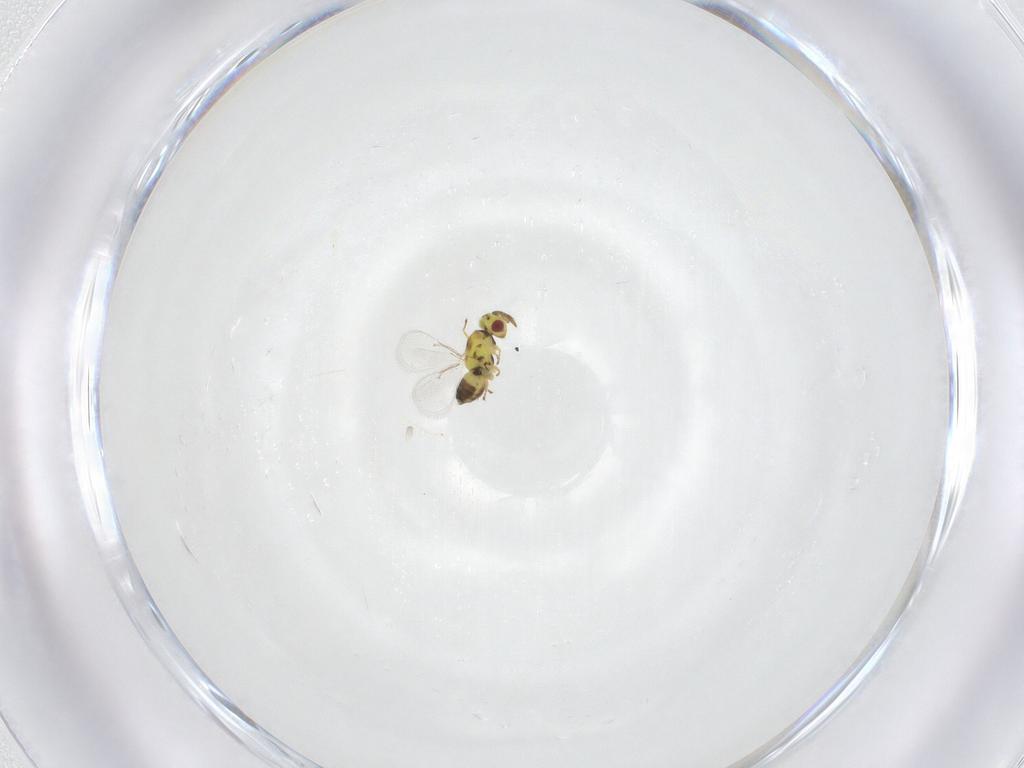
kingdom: Animalia
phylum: Arthropoda
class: Insecta
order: Hymenoptera
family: Eulophidae
